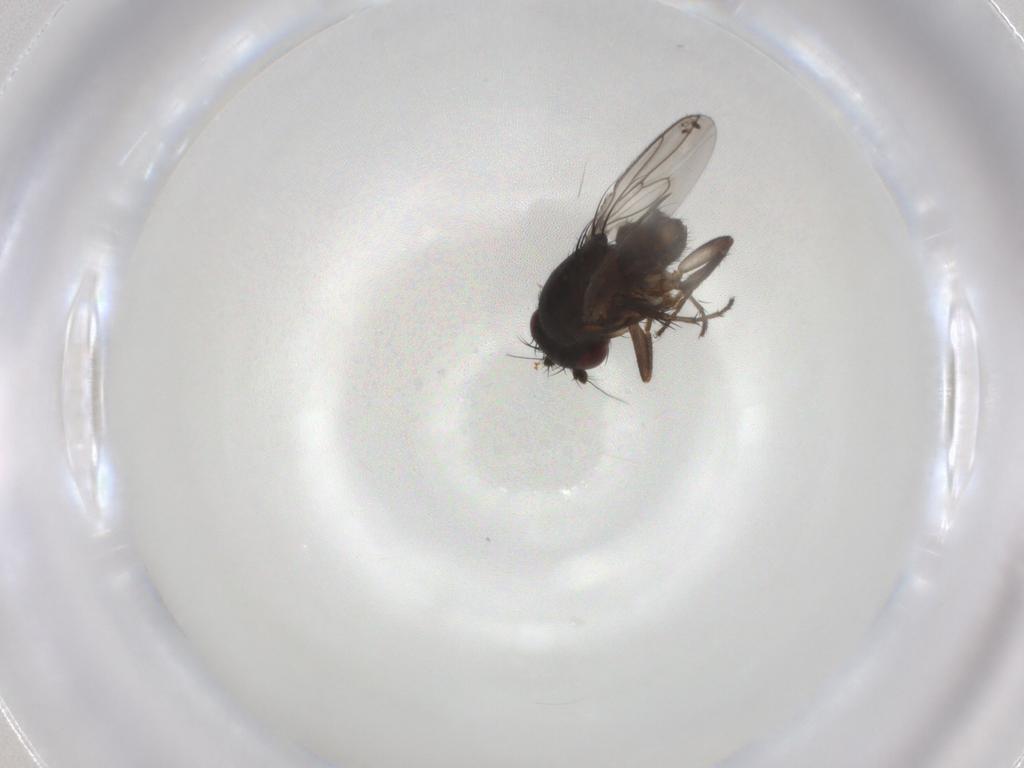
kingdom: Animalia
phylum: Arthropoda
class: Insecta
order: Diptera
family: Sphaeroceridae
